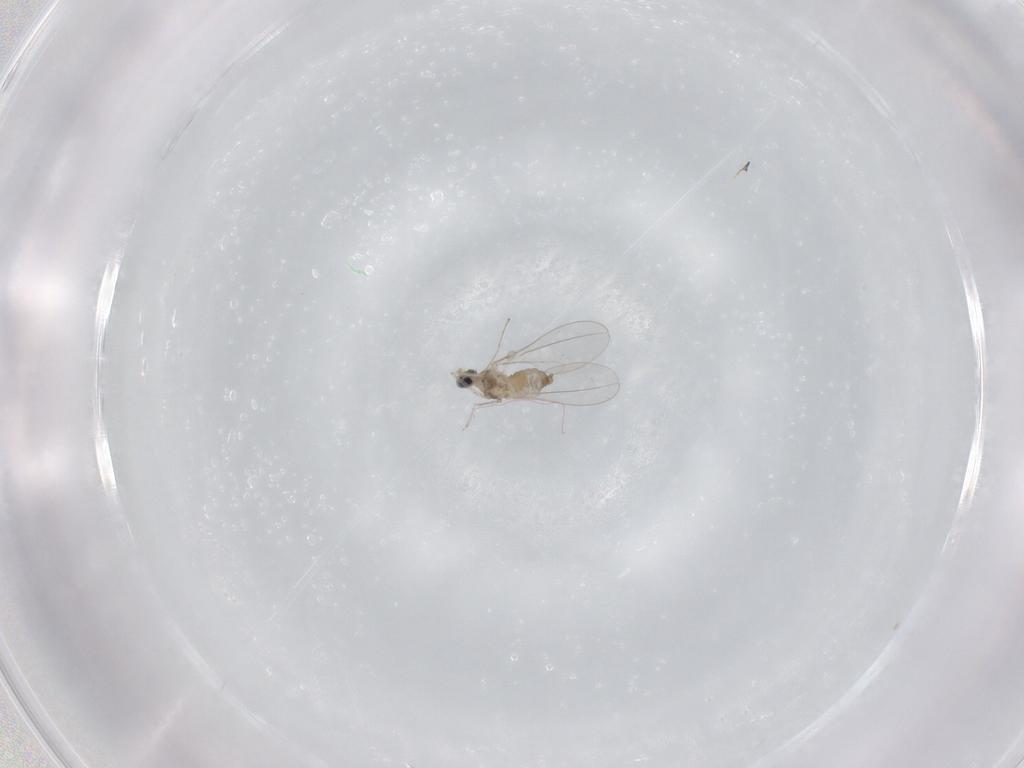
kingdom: Animalia
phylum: Arthropoda
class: Insecta
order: Diptera
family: Cecidomyiidae
